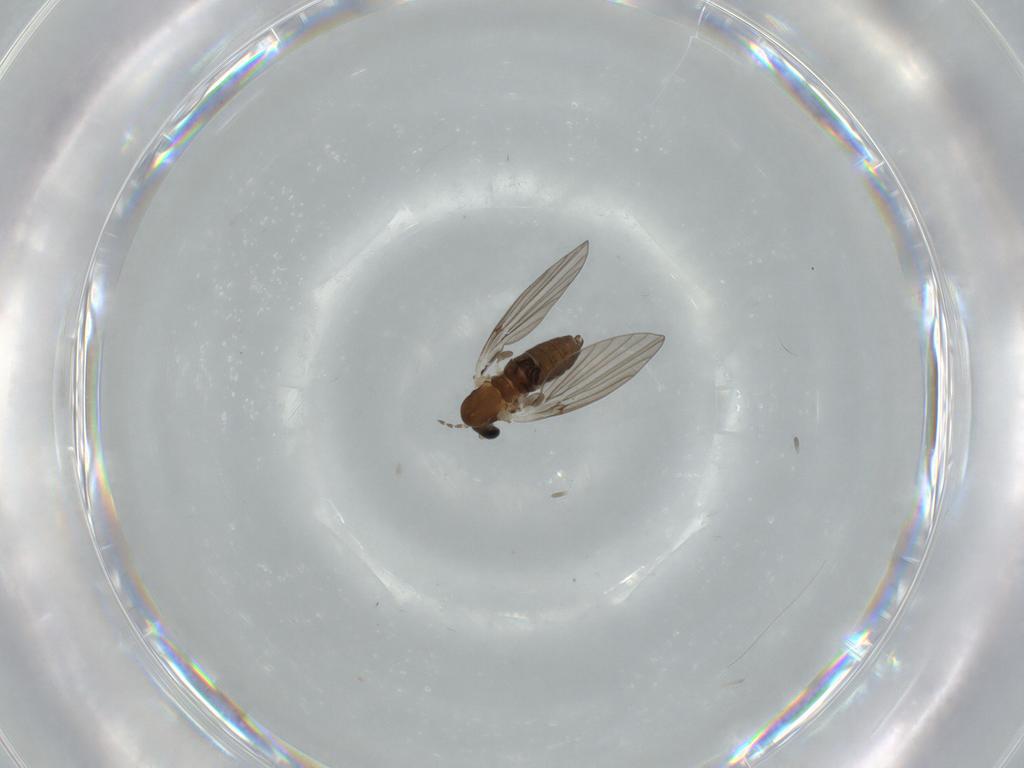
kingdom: Animalia
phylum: Arthropoda
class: Insecta
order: Diptera
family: Psychodidae
